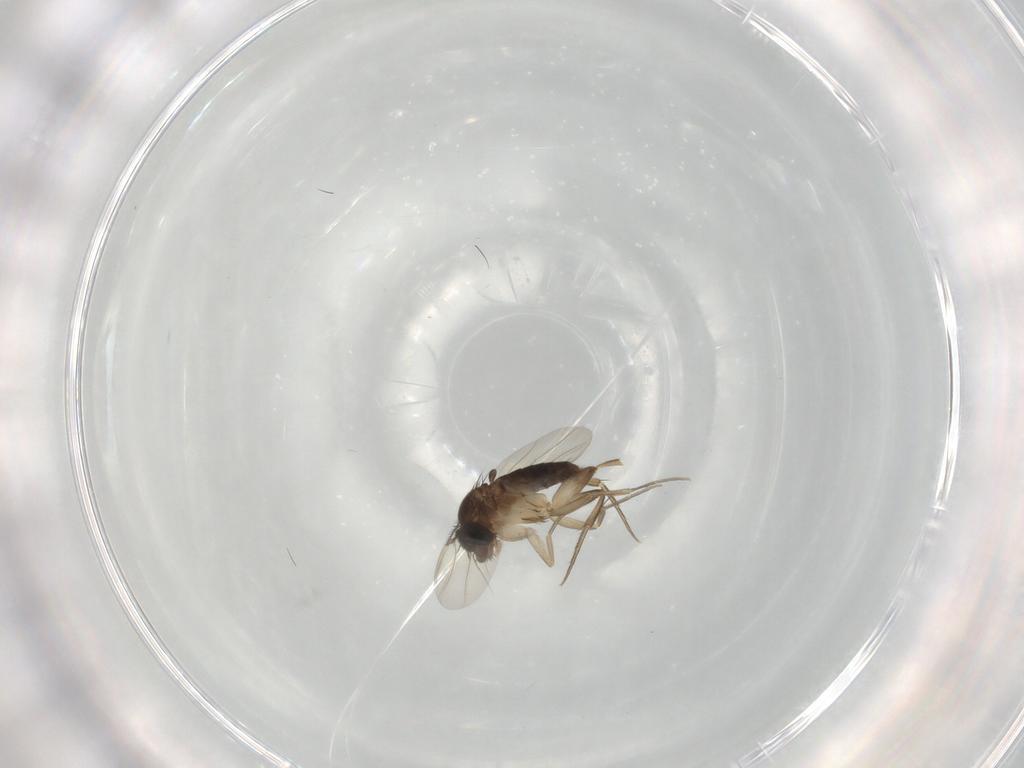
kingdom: Animalia
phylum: Arthropoda
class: Insecta
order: Diptera
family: Phoridae
